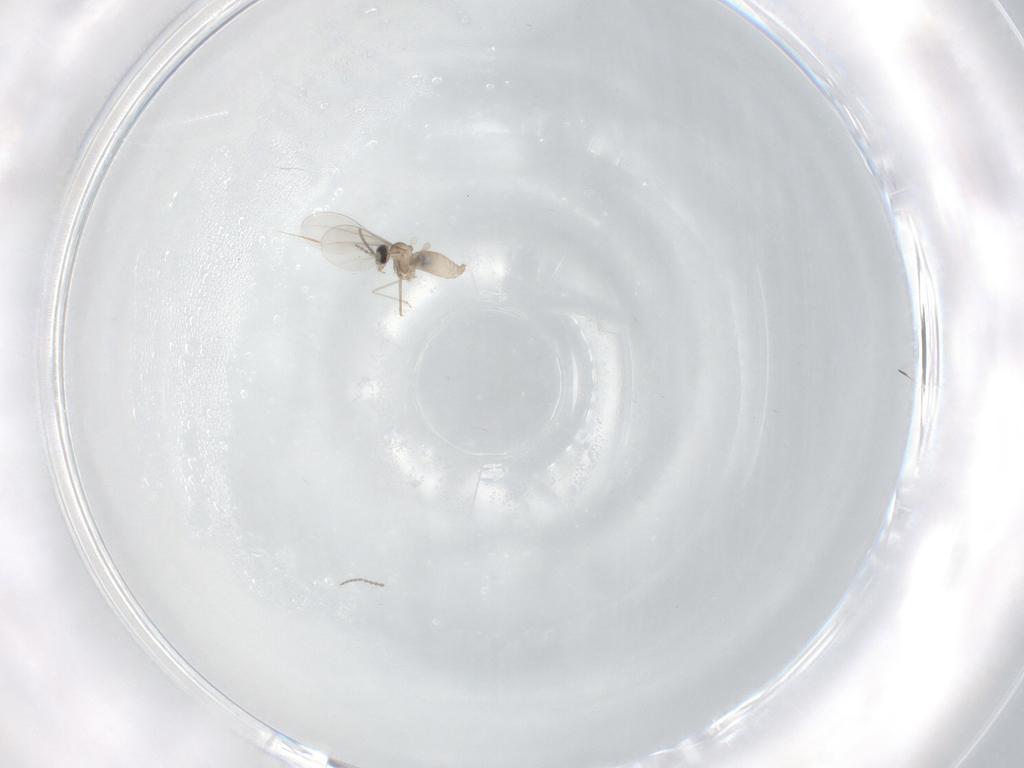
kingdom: Animalia
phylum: Arthropoda
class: Insecta
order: Diptera
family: Cecidomyiidae
